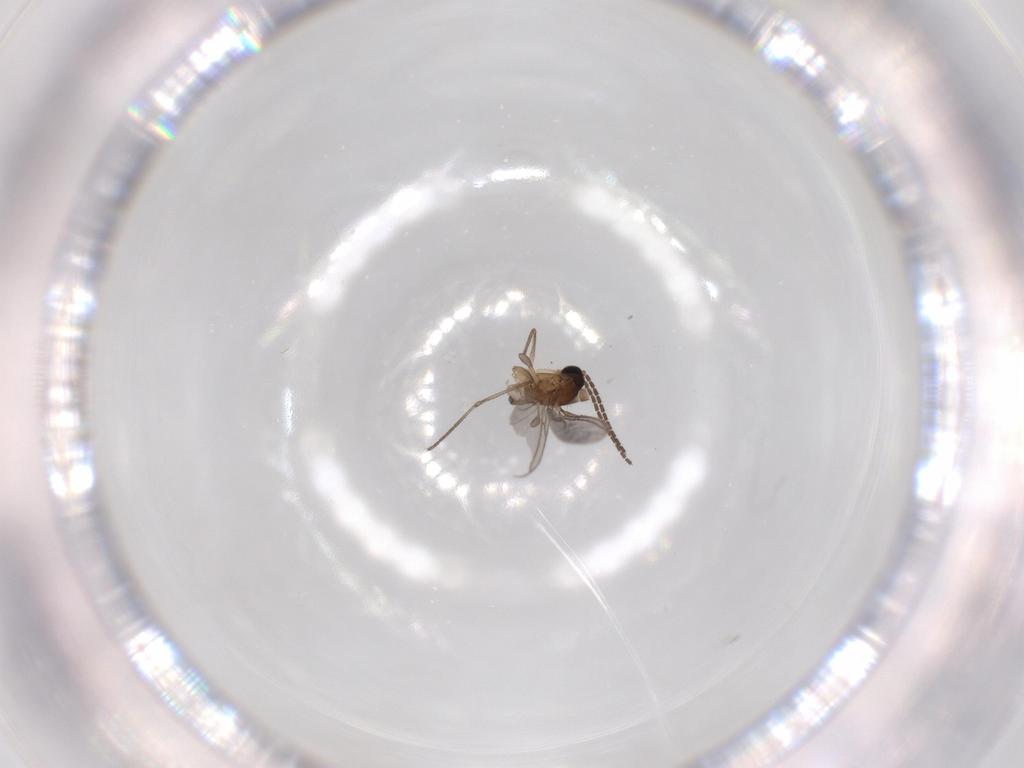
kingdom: Animalia
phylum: Arthropoda
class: Insecta
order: Diptera
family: Sciaridae
